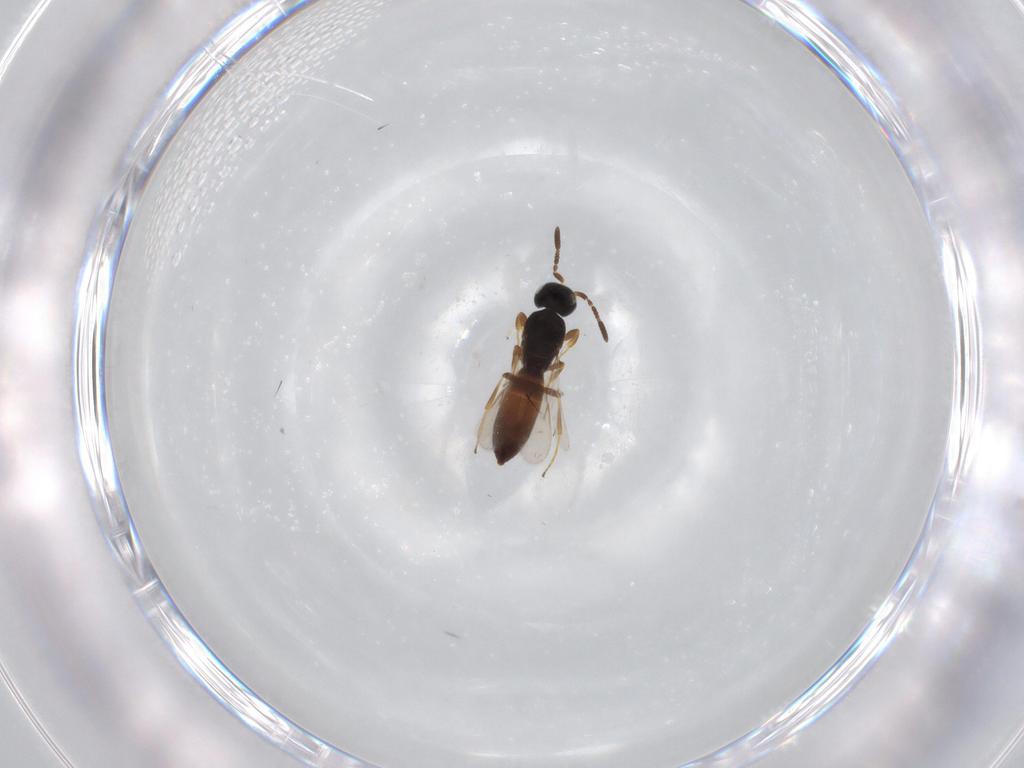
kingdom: Animalia
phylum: Arthropoda
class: Insecta
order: Hymenoptera
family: Scelionidae
